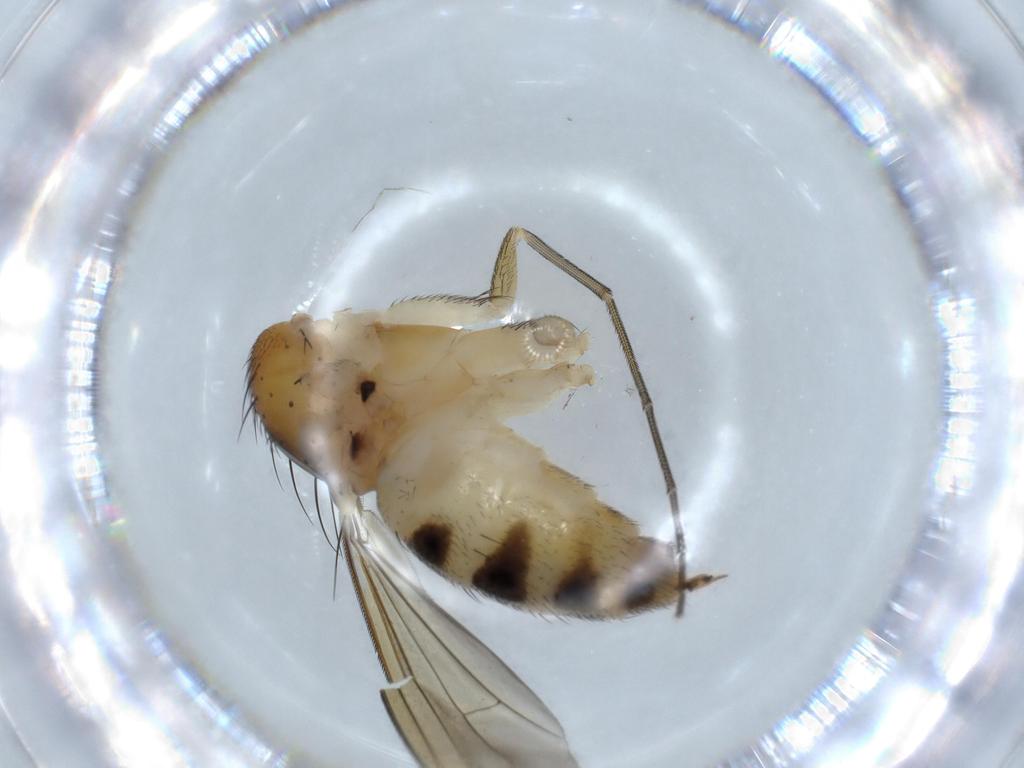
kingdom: Animalia
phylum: Arthropoda
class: Insecta
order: Diptera
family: Dolichopodidae
